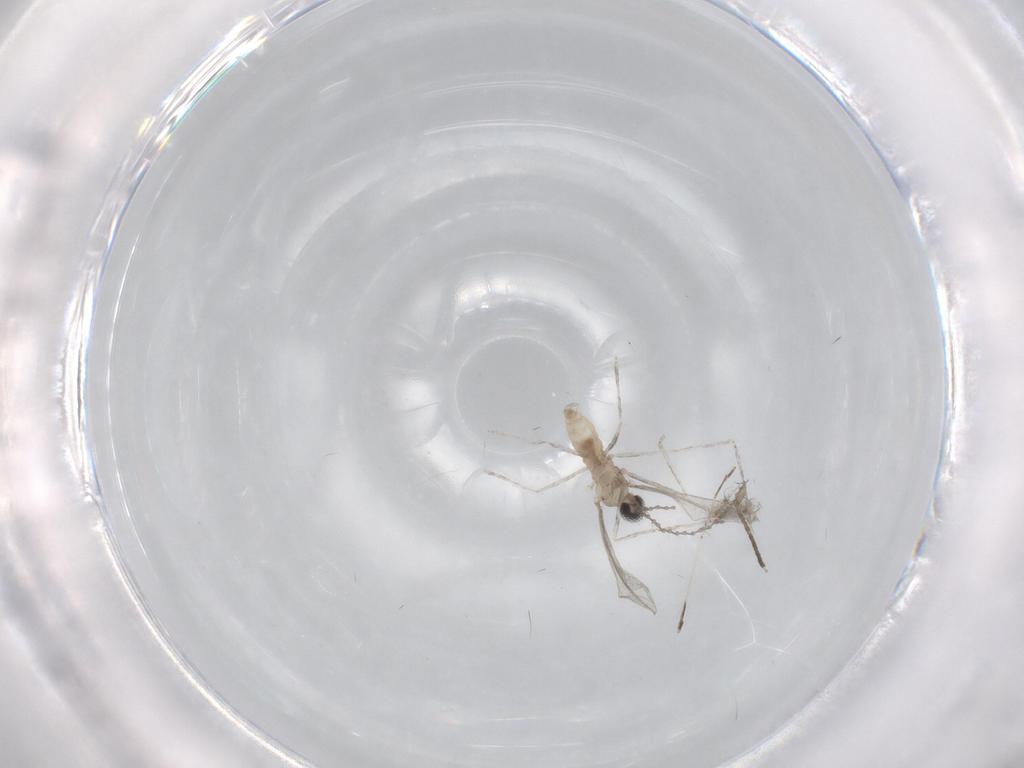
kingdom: Animalia
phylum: Arthropoda
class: Insecta
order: Diptera
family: Cecidomyiidae
